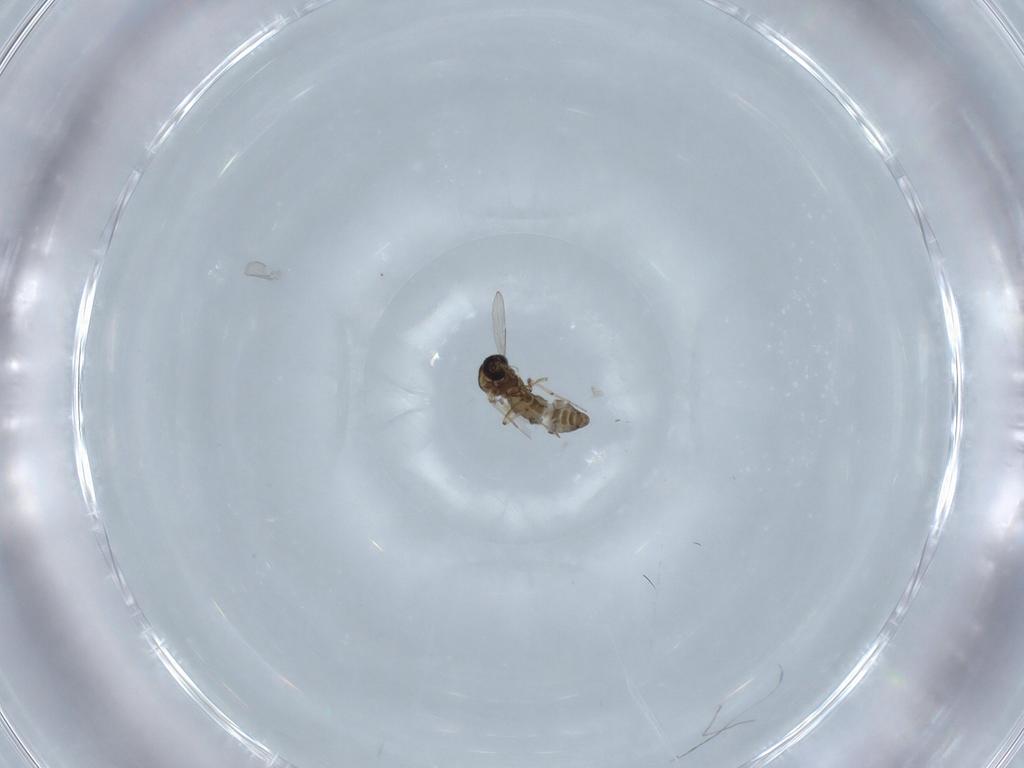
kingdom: Animalia
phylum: Arthropoda
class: Insecta
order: Diptera
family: Ceratopogonidae
